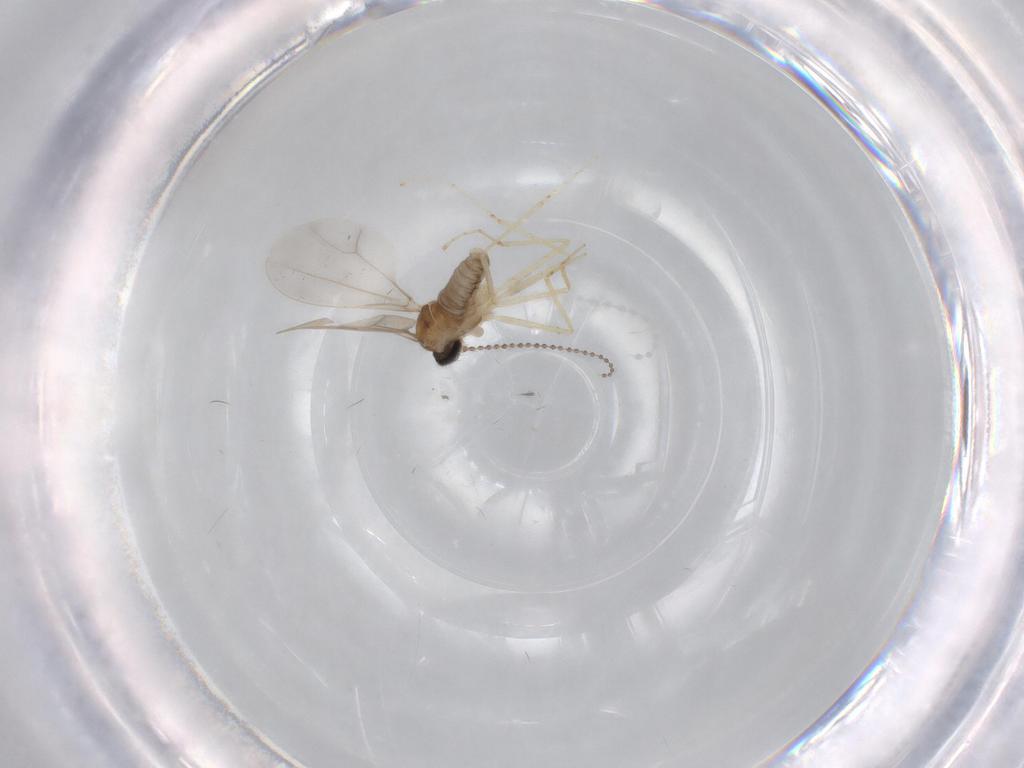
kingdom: Animalia
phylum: Arthropoda
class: Insecta
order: Diptera
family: Cecidomyiidae
